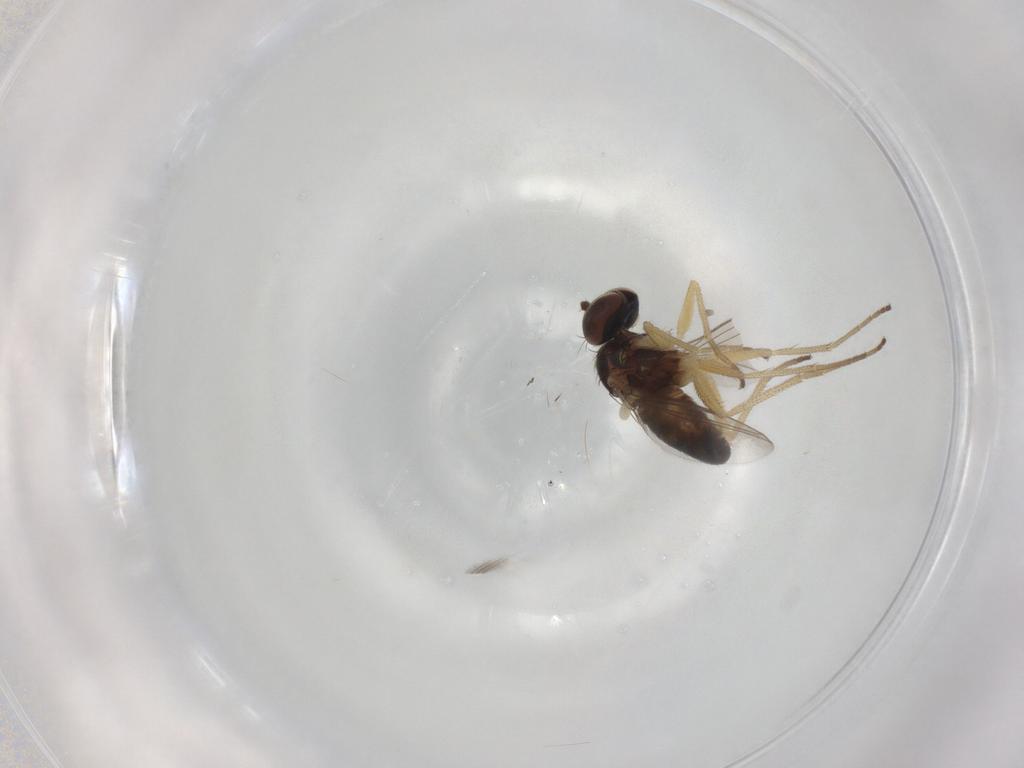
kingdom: Animalia
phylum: Arthropoda
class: Insecta
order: Diptera
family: Dolichopodidae
